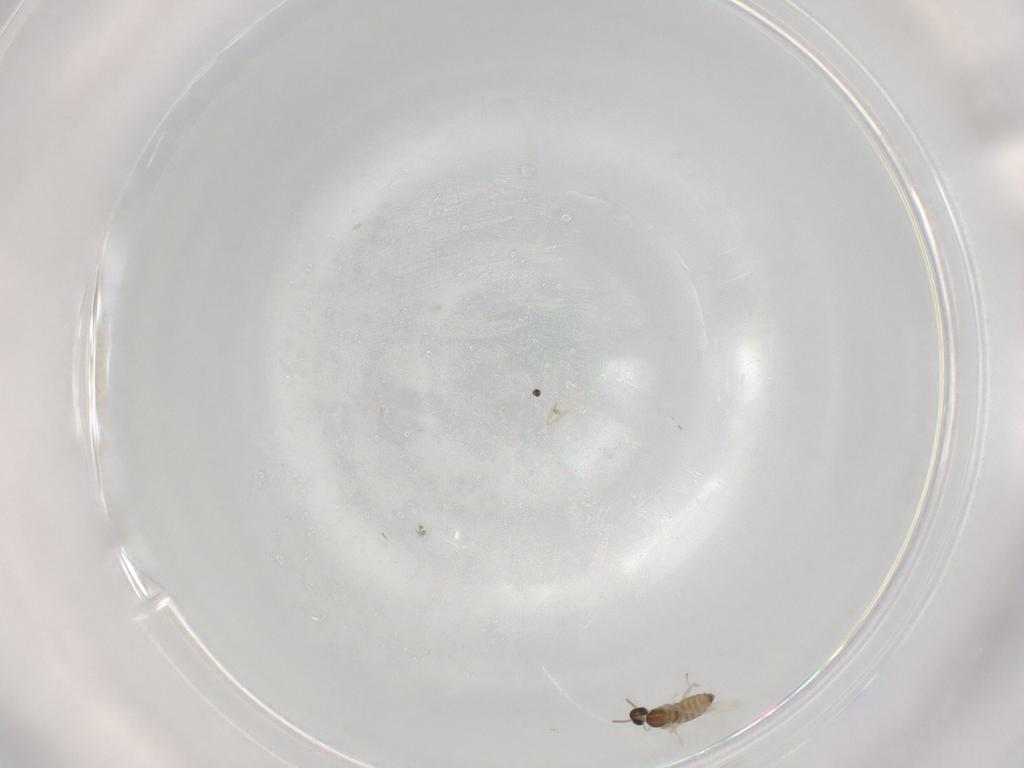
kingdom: Animalia
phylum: Arthropoda
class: Insecta
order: Diptera
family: Cecidomyiidae
